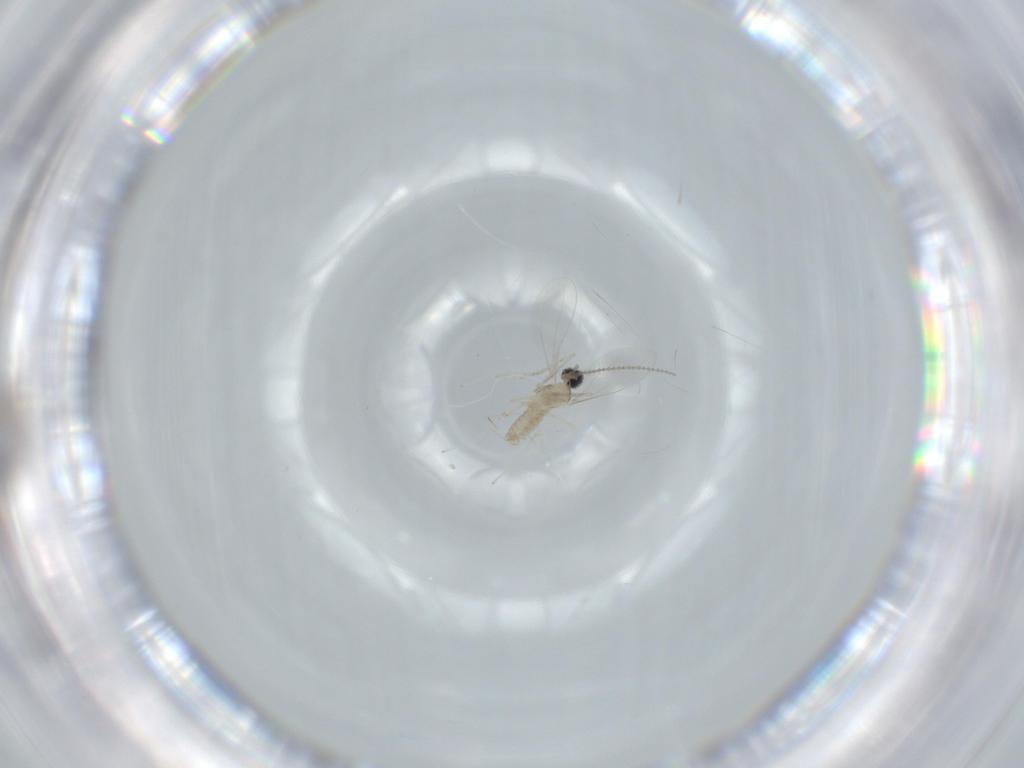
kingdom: Animalia
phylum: Arthropoda
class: Insecta
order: Diptera
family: Cecidomyiidae
